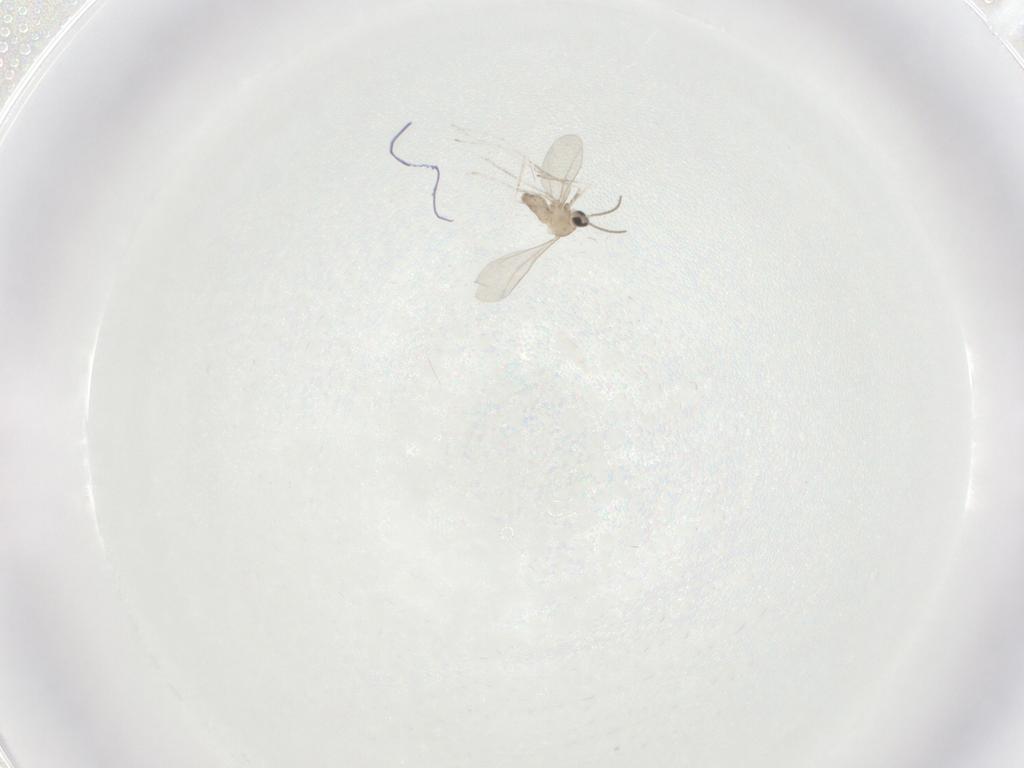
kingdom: Animalia
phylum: Arthropoda
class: Insecta
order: Diptera
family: Cecidomyiidae
